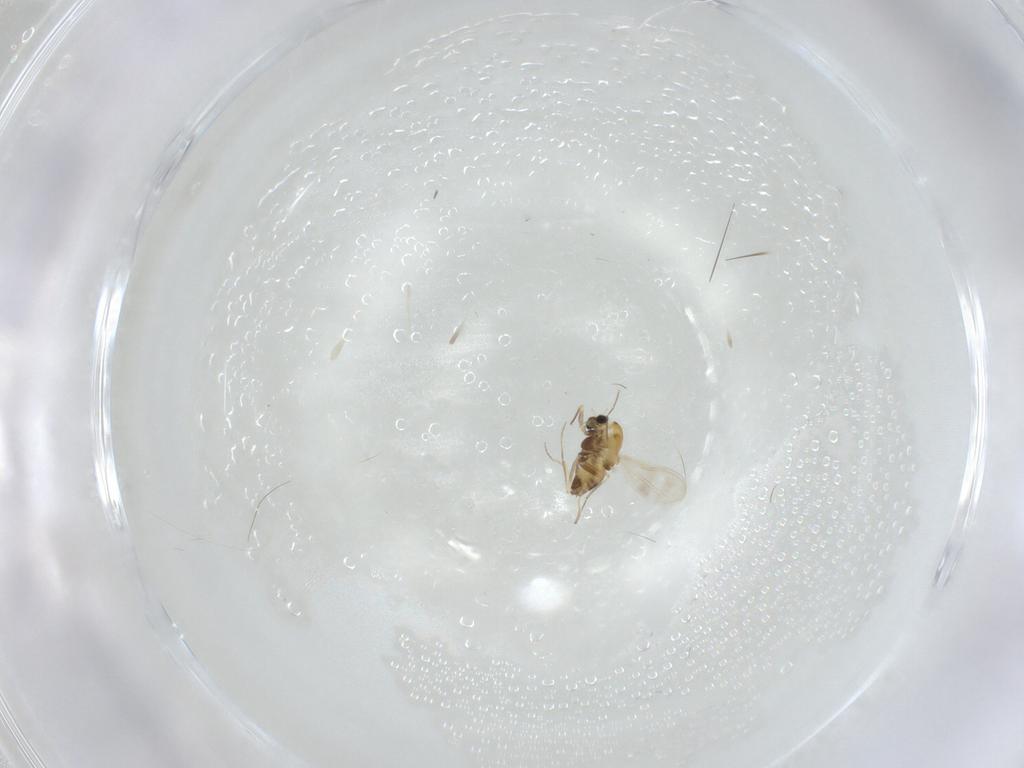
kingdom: Animalia
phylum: Arthropoda
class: Insecta
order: Diptera
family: Chironomidae
